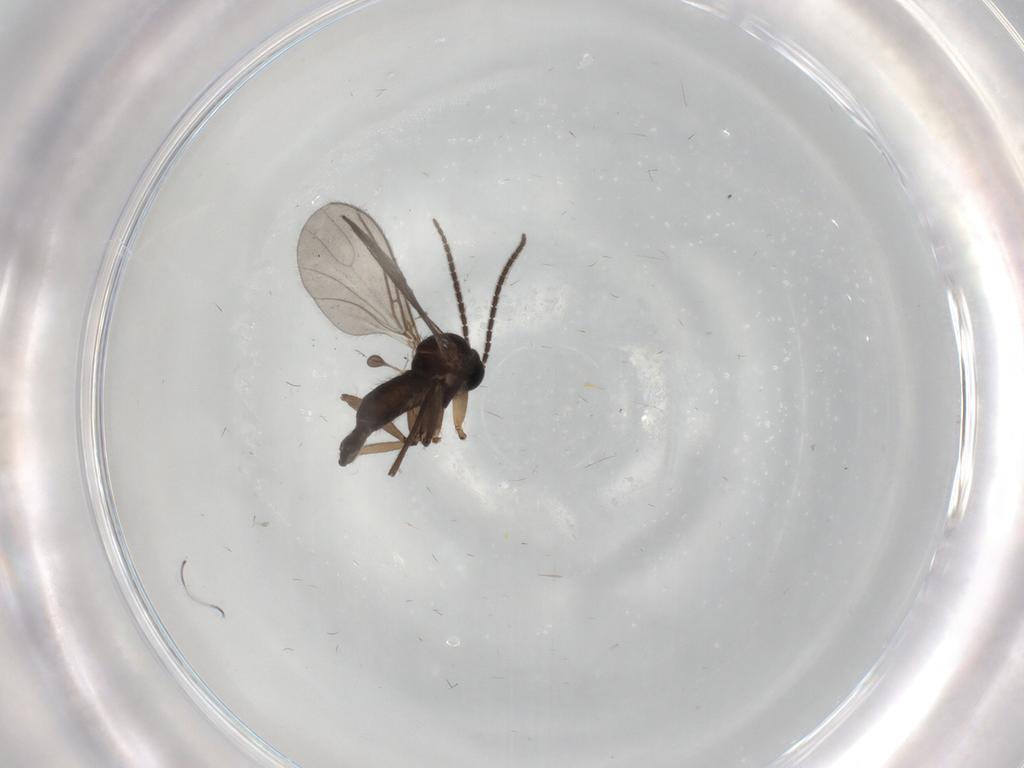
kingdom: Animalia
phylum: Arthropoda
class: Insecta
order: Diptera
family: Sciaridae
